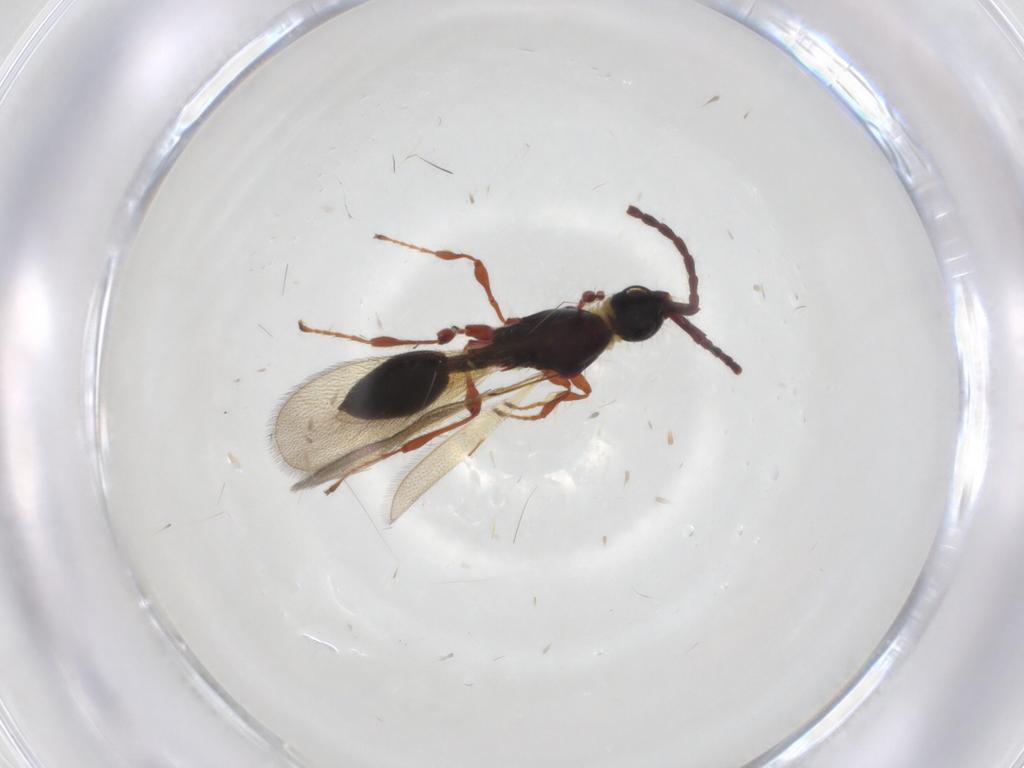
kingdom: Animalia
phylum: Arthropoda
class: Insecta
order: Hymenoptera
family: Diapriidae
